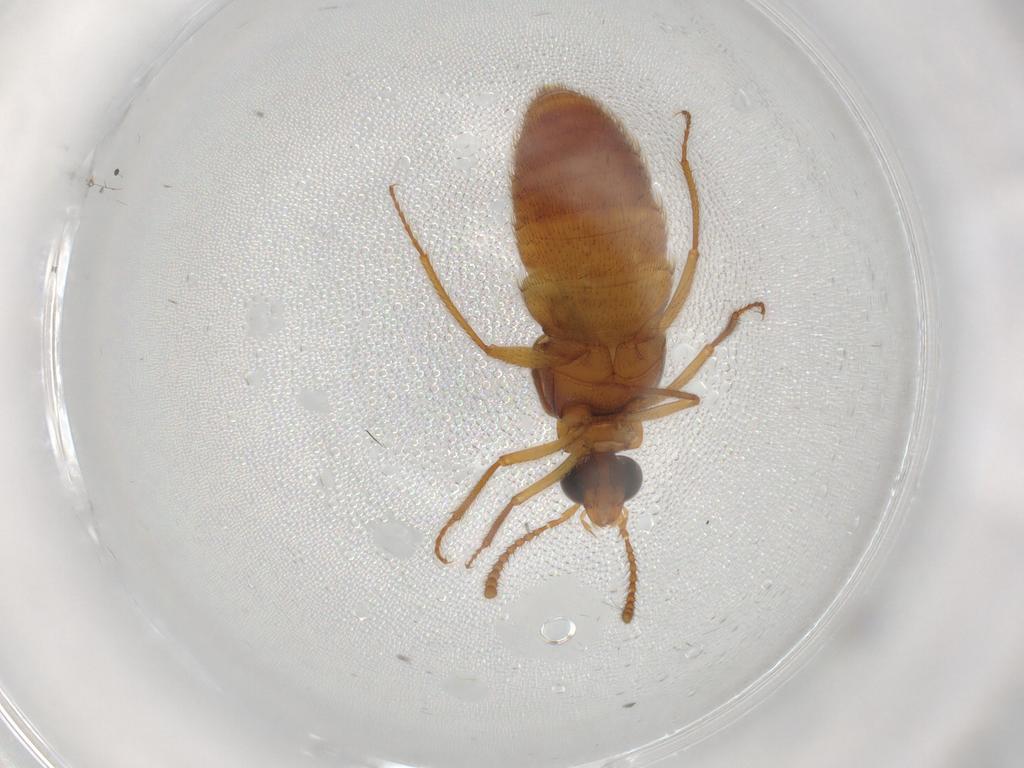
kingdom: Animalia
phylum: Arthropoda
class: Insecta
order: Coleoptera
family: Staphylinidae
